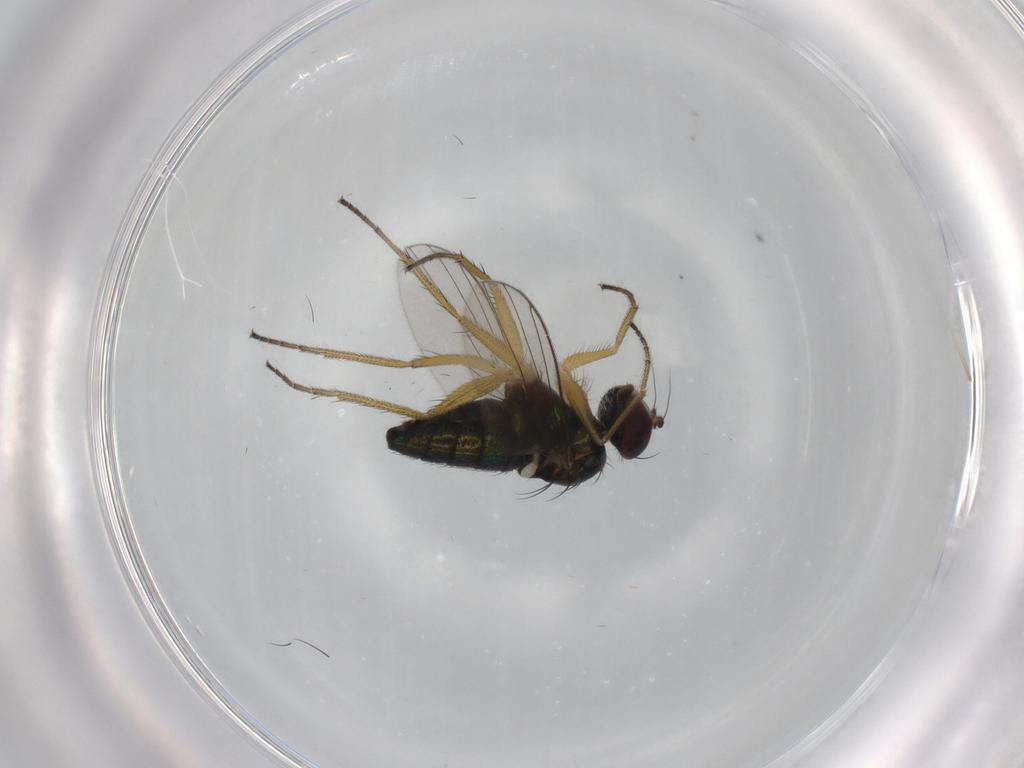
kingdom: Animalia
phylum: Arthropoda
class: Insecta
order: Diptera
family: Dolichopodidae
